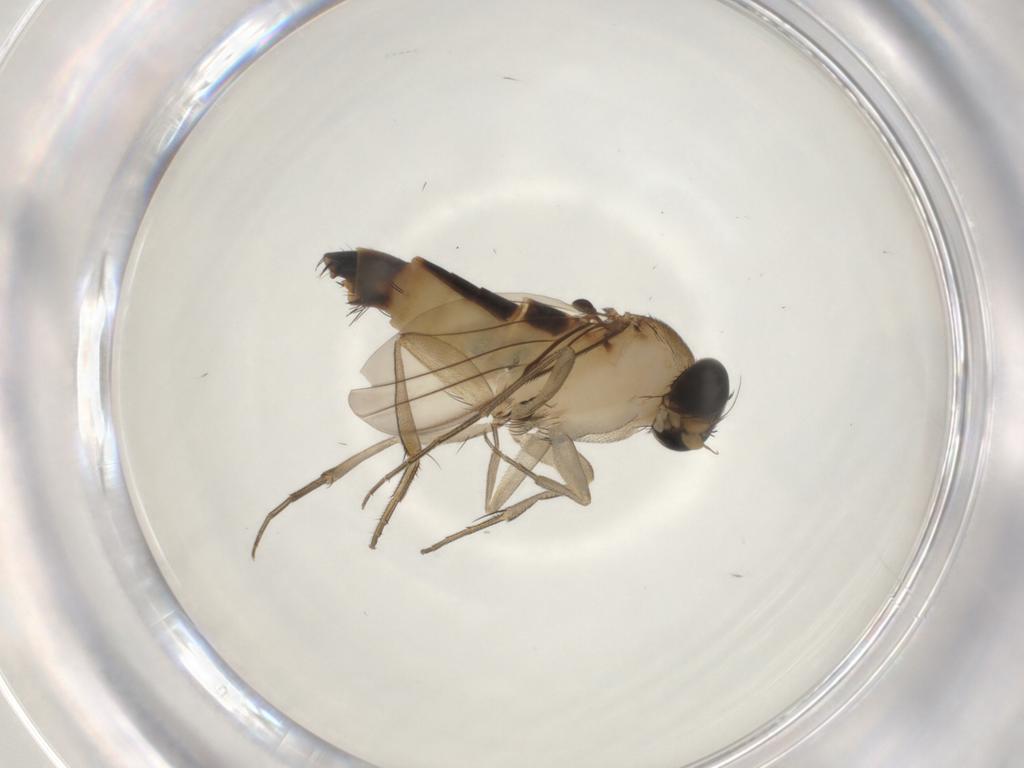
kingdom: Animalia
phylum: Arthropoda
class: Insecta
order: Diptera
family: Phoridae
